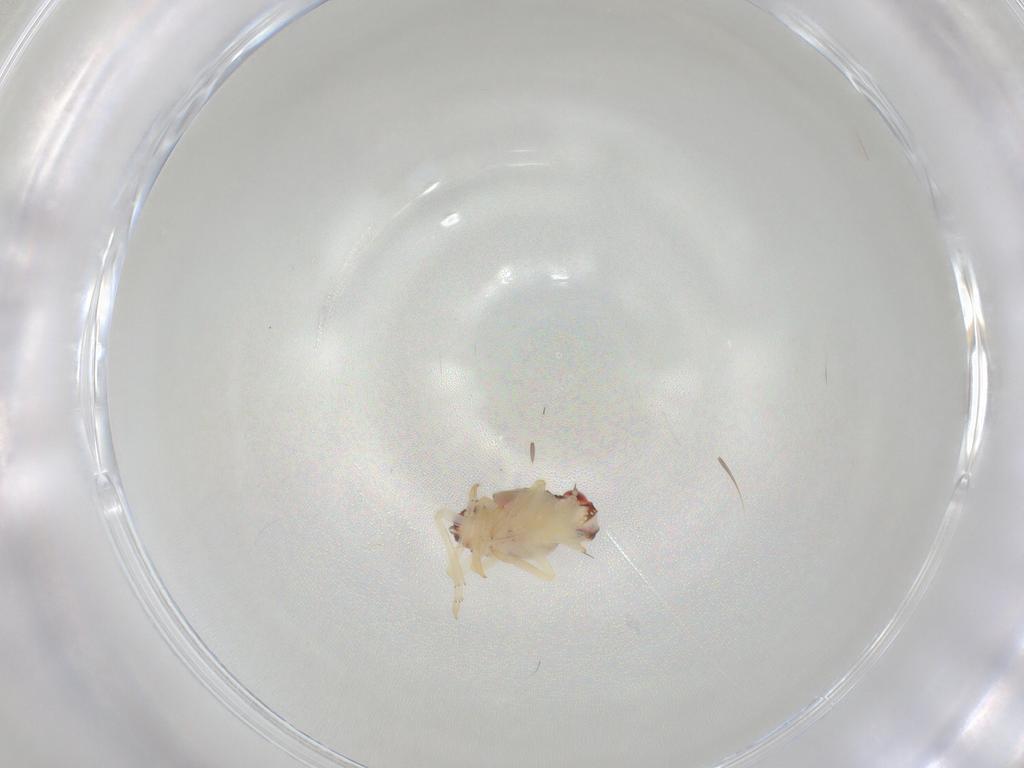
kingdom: Animalia
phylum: Arthropoda
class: Insecta
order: Hemiptera
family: Aleyrodidae
